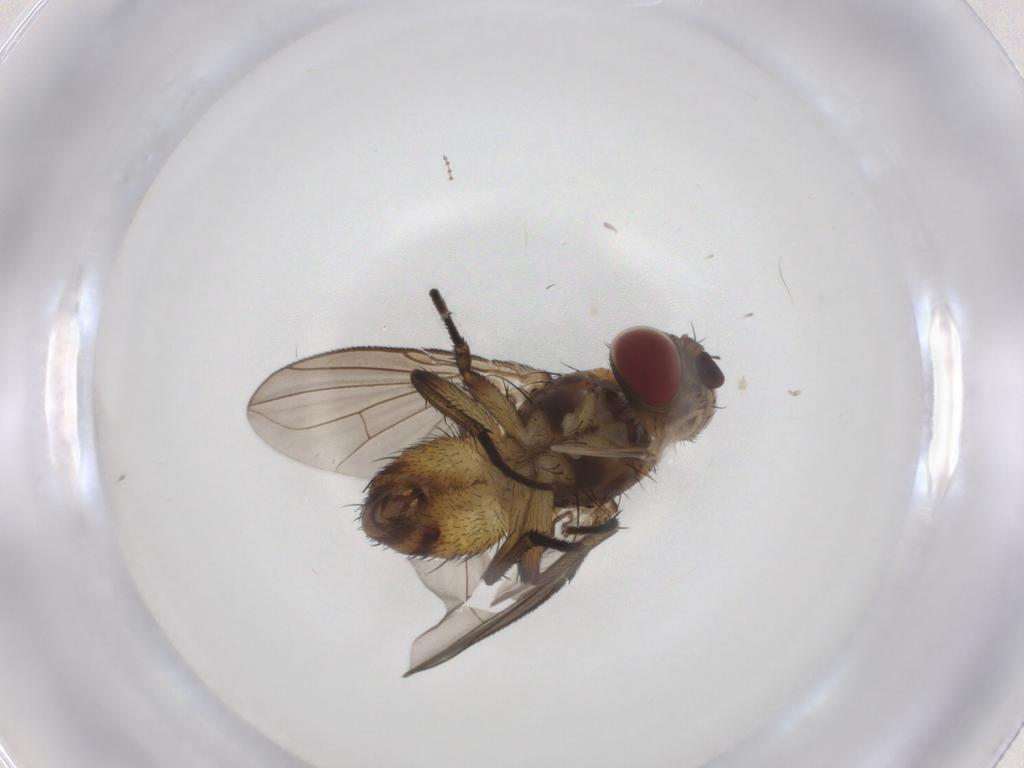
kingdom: Animalia
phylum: Arthropoda
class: Insecta
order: Diptera
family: Tachinidae
